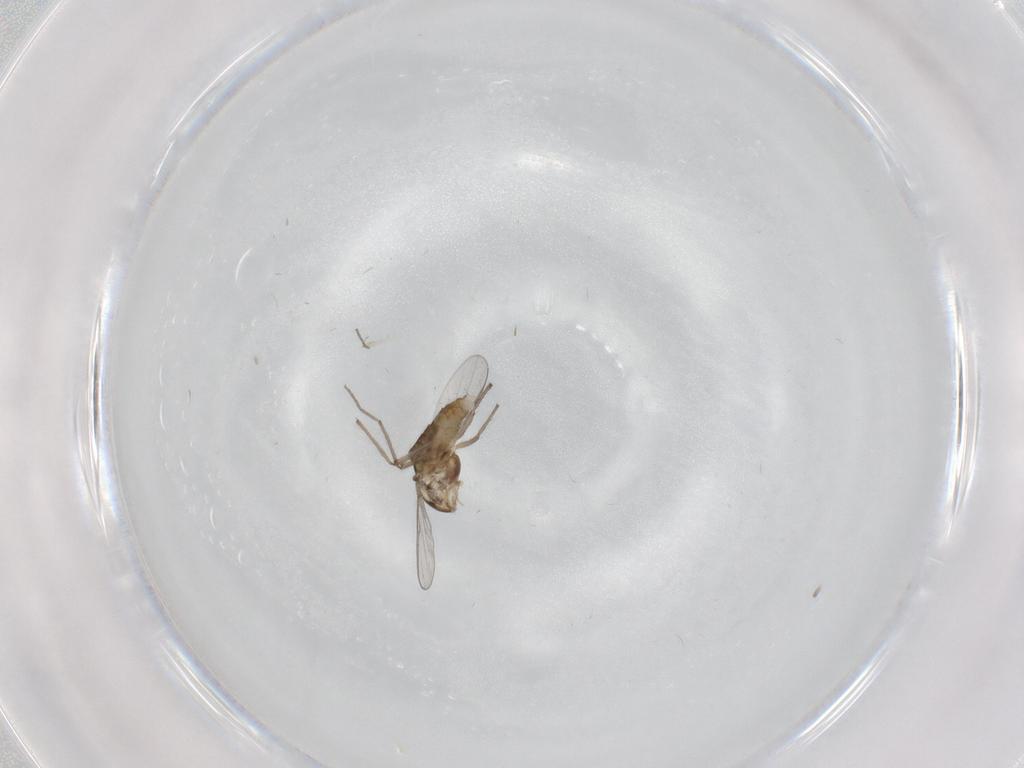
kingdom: Animalia
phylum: Arthropoda
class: Insecta
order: Diptera
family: Chironomidae
